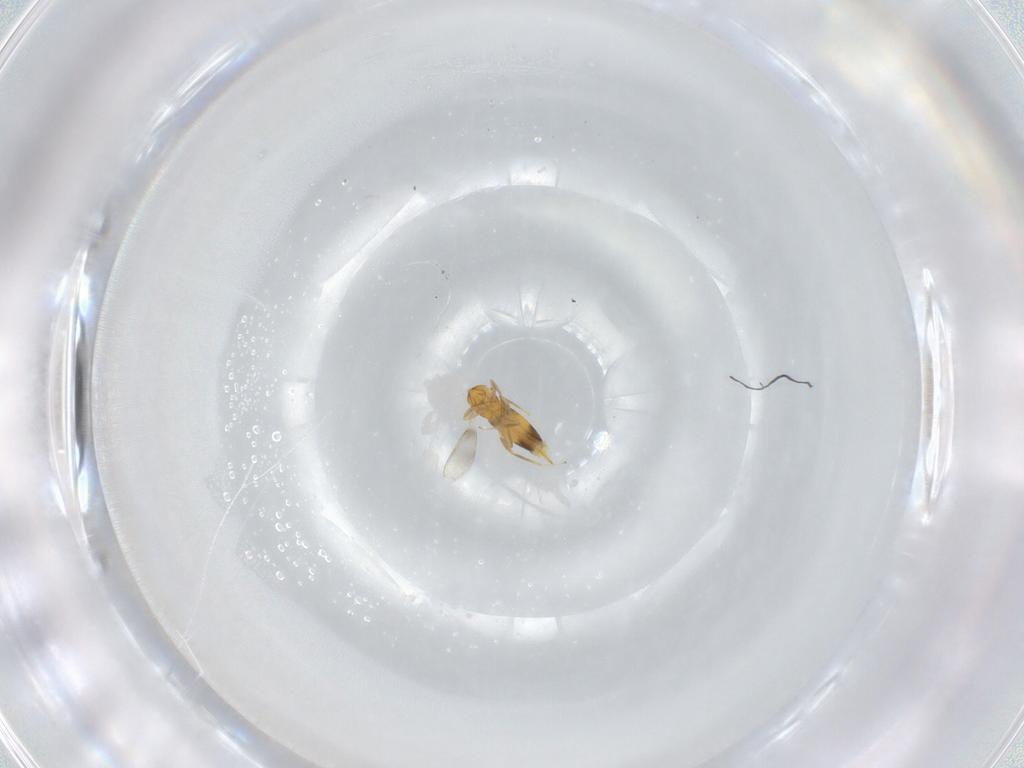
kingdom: Animalia
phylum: Arthropoda
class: Insecta
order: Hymenoptera
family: Aphelinidae
